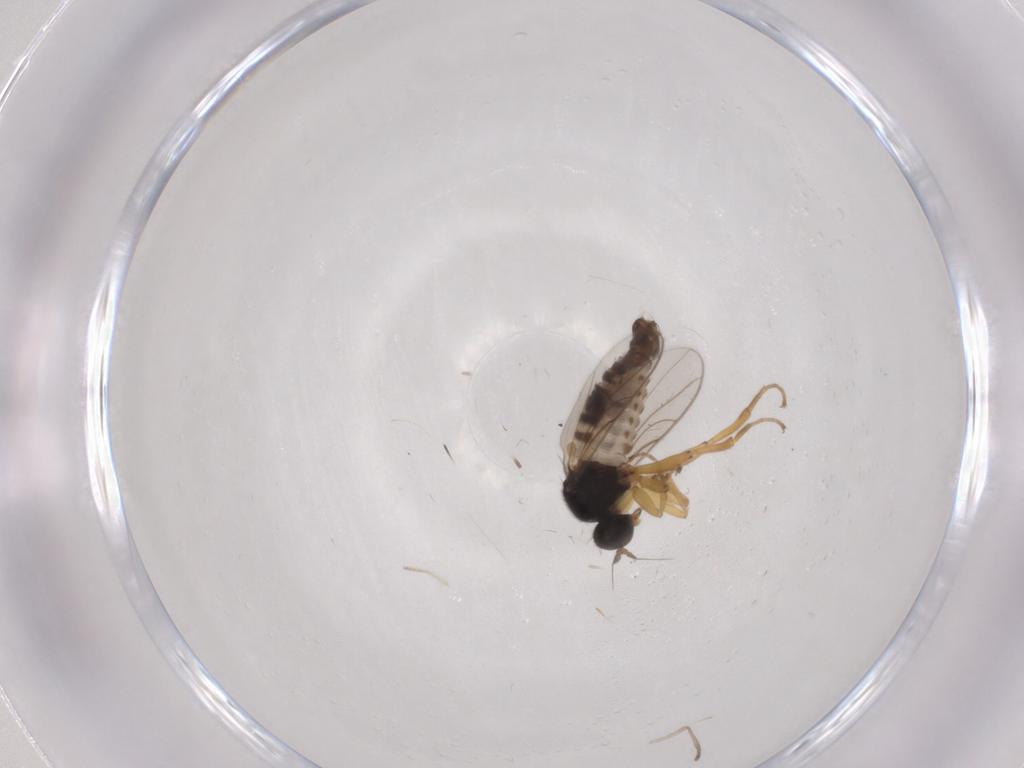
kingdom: Animalia
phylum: Arthropoda
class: Insecta
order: Diptera
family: Hybotidae
